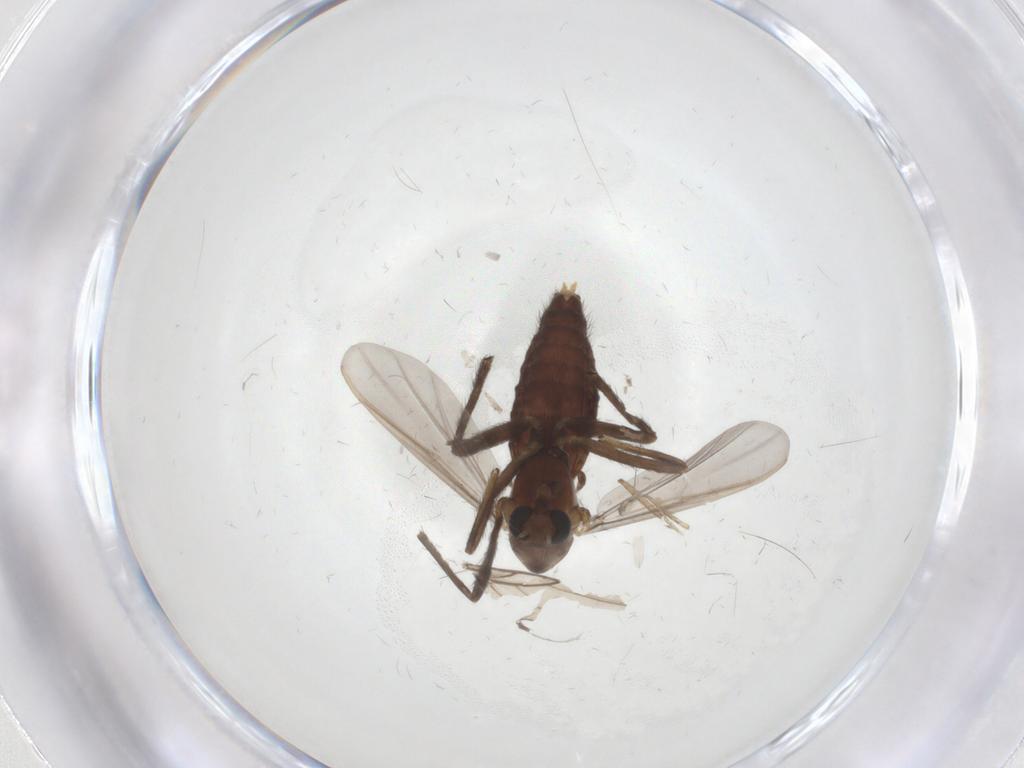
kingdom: Animalia
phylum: Arthropoda
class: Insecta
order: Diptera
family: Chironomidae
